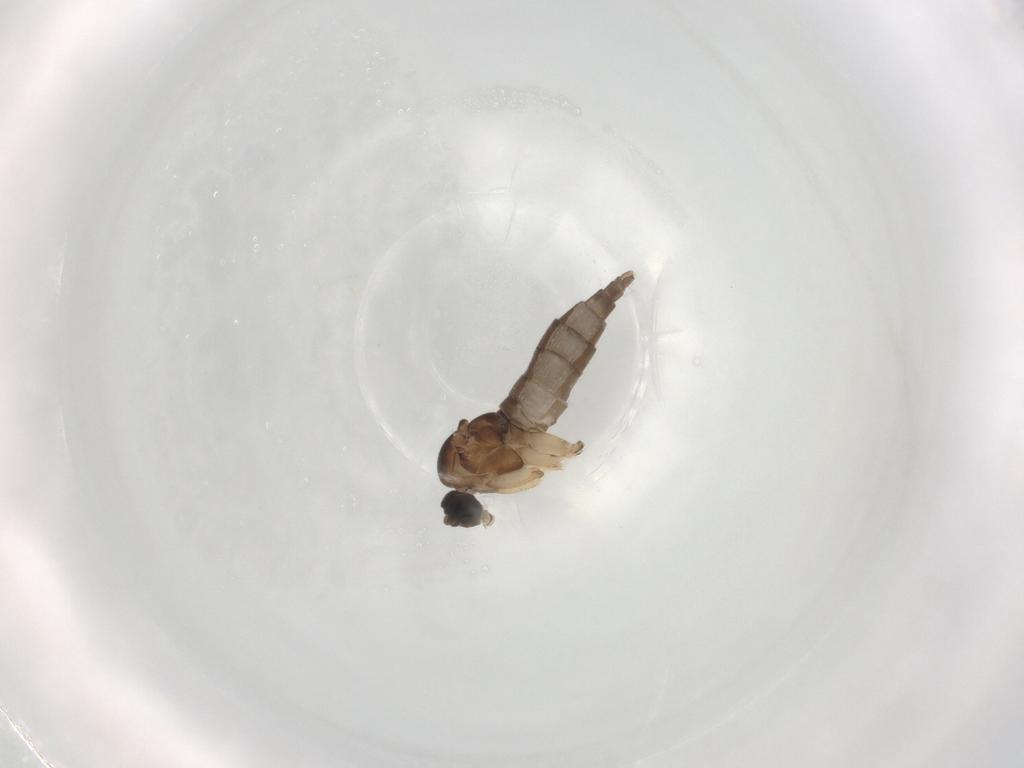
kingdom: Animalia
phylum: Arthropoda
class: Insecta
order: Diptera
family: Sciaridae
